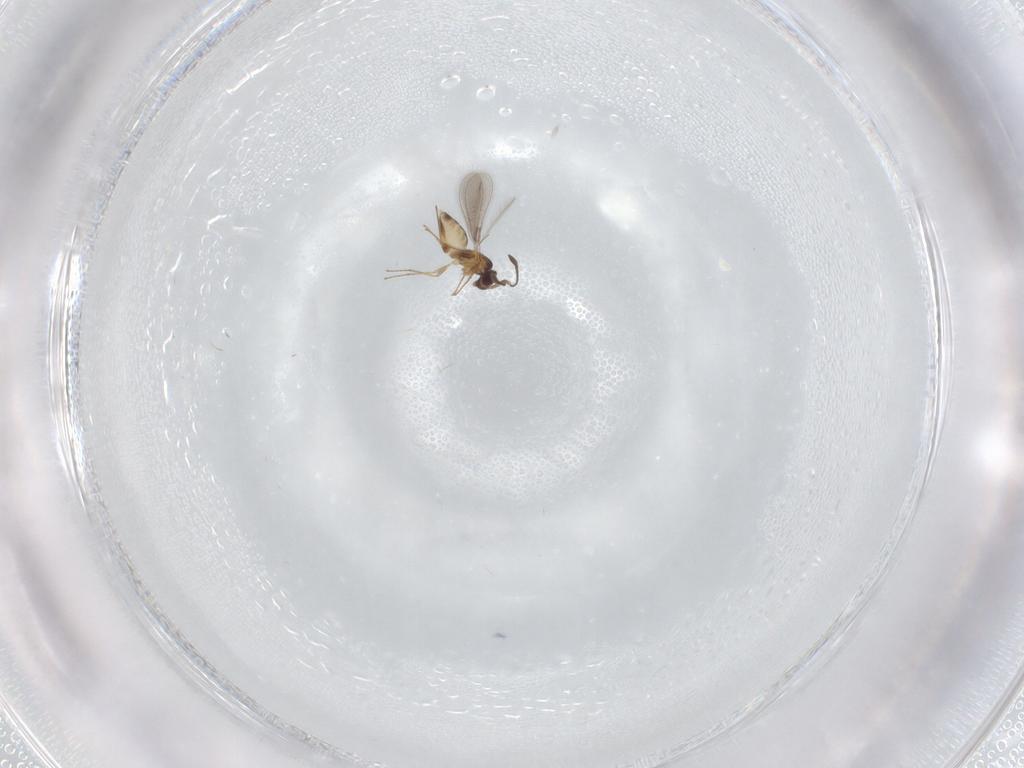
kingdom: Animalia
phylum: Arthropoda
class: Insecta
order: Hymenoptera
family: Mymaridae
